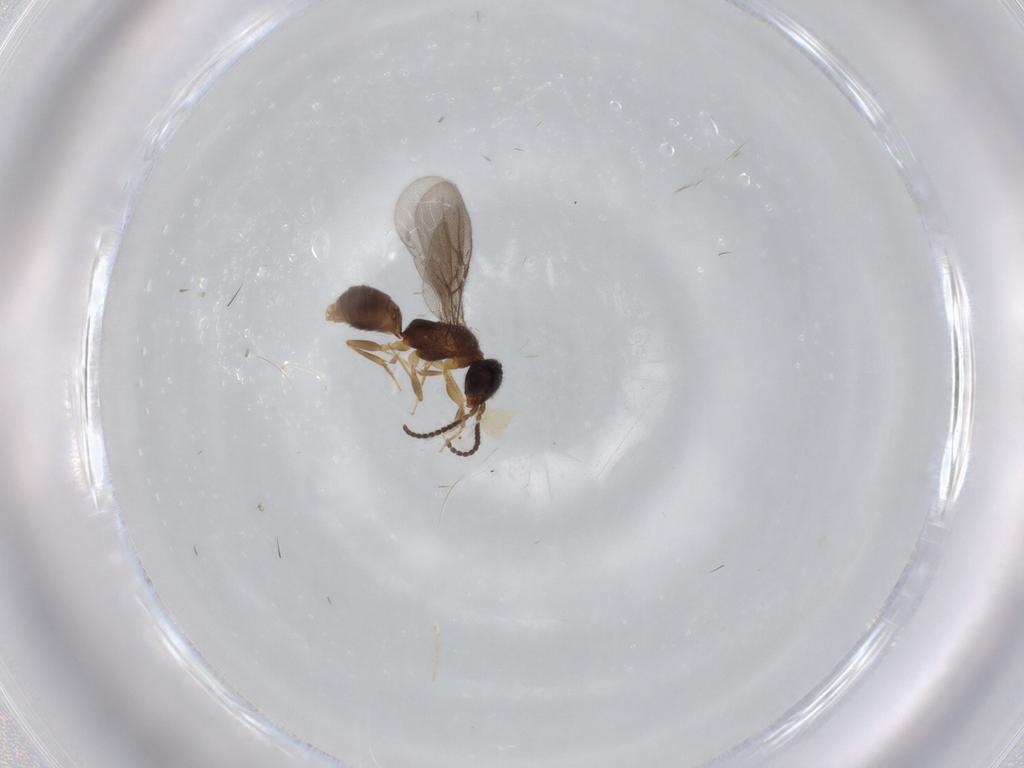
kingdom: Animalia
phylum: Arthropoda
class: Insecta
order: Hymenoptera
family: Bethylidae
